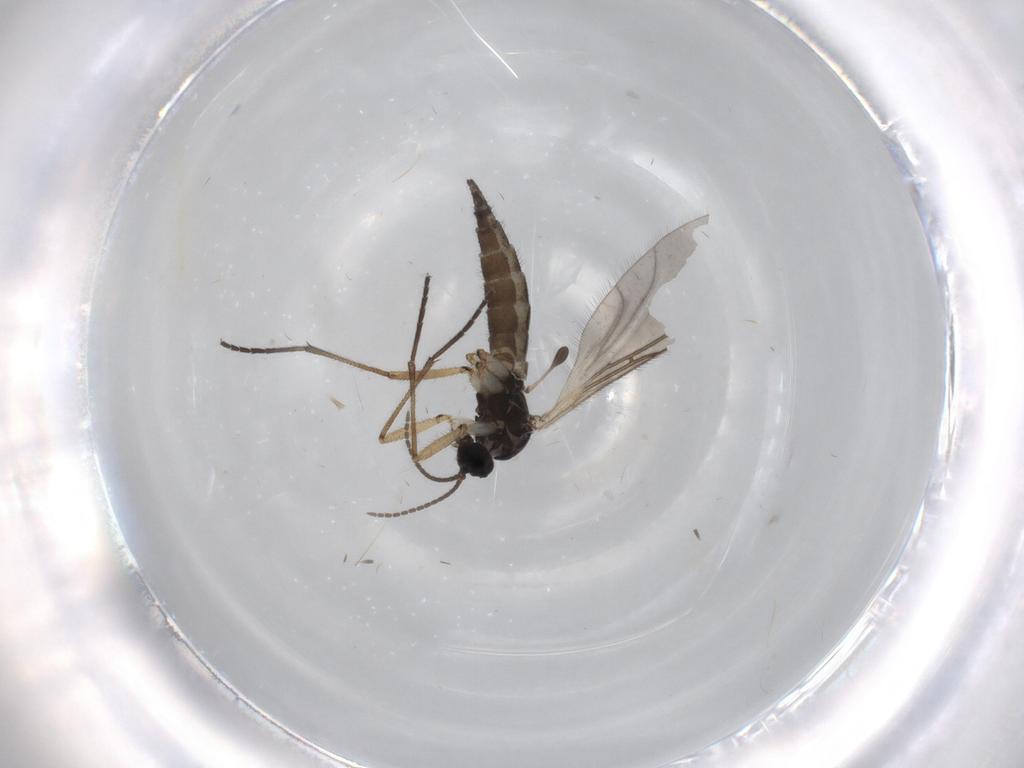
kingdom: Animalia
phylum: Arthropoda
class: Insecta
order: Diptera
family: Sciaridae
